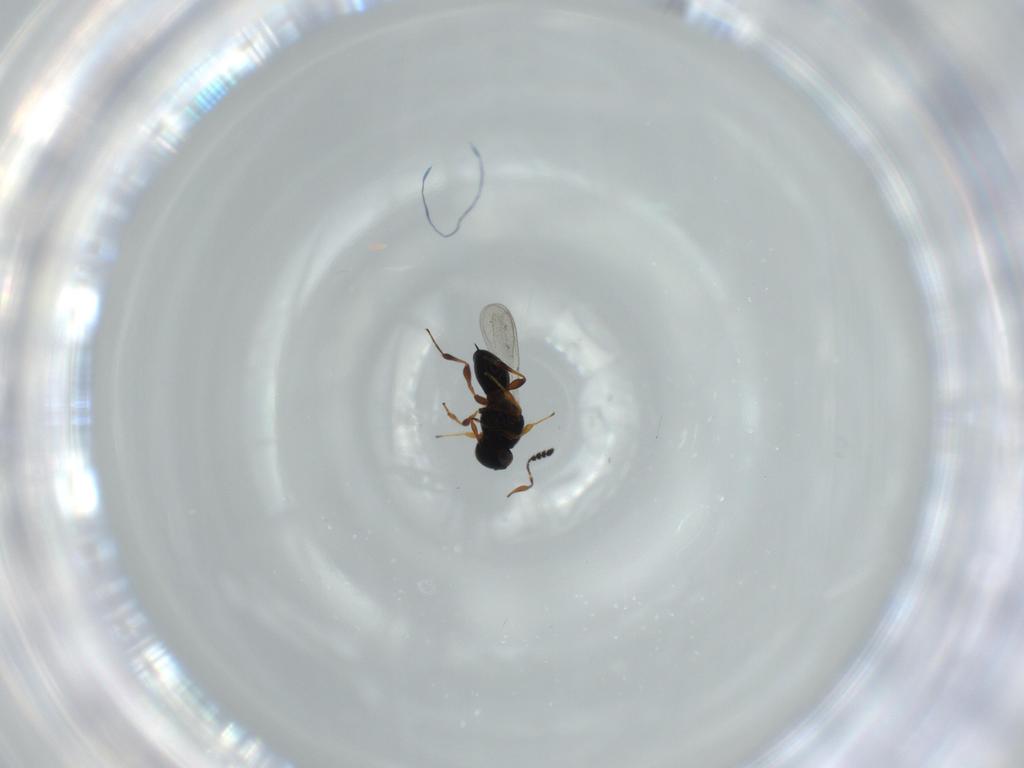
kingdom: Animalia
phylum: Arthropoda
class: Insecta
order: Hymenoptera
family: Platygastridae
